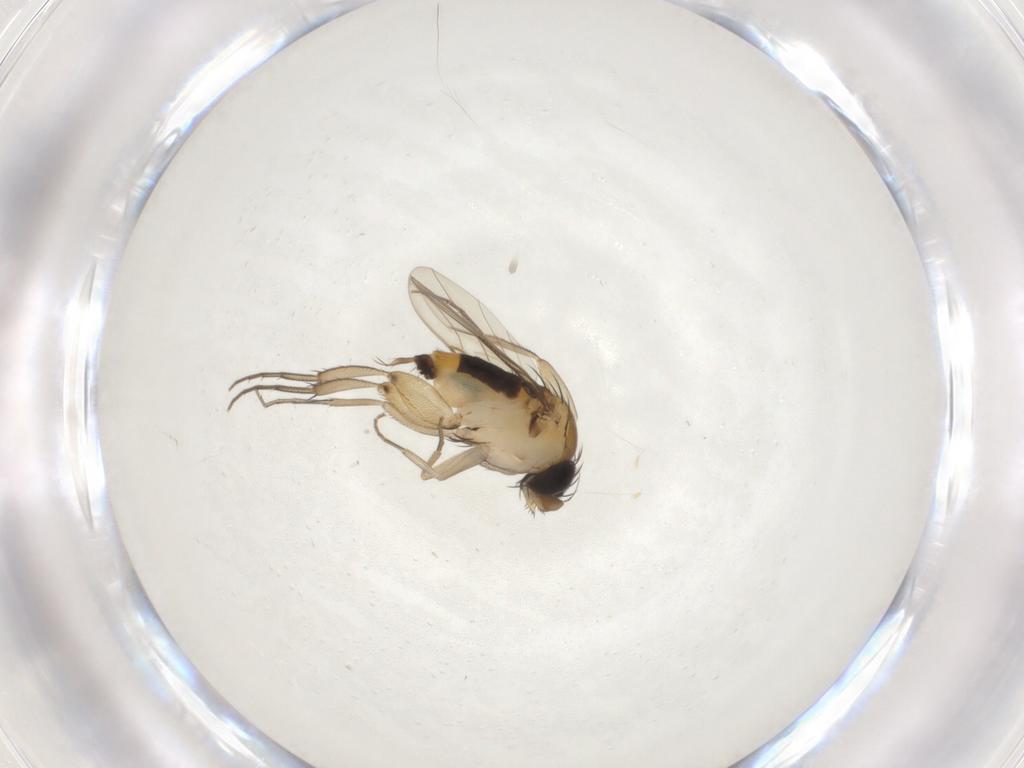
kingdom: Animalia
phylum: Arthropoda
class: Insecta
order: Diptera
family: Phoridae
